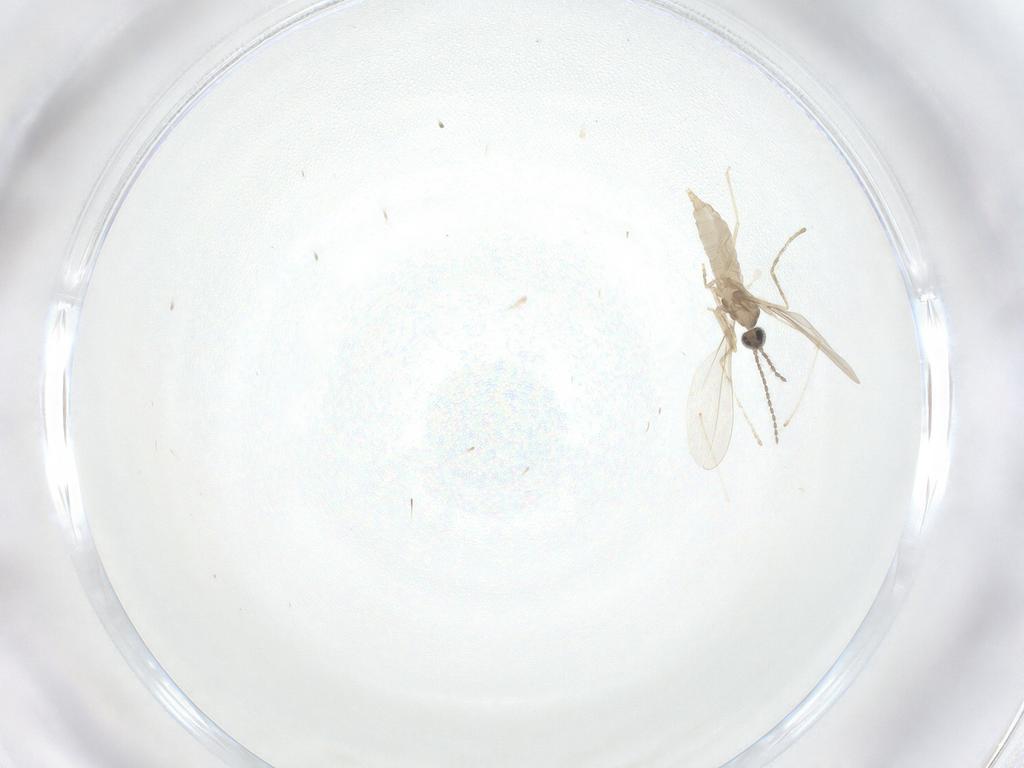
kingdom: Animalia
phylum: Arthropoda
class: Insecta
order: Diptera
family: Cecidomyiidae
